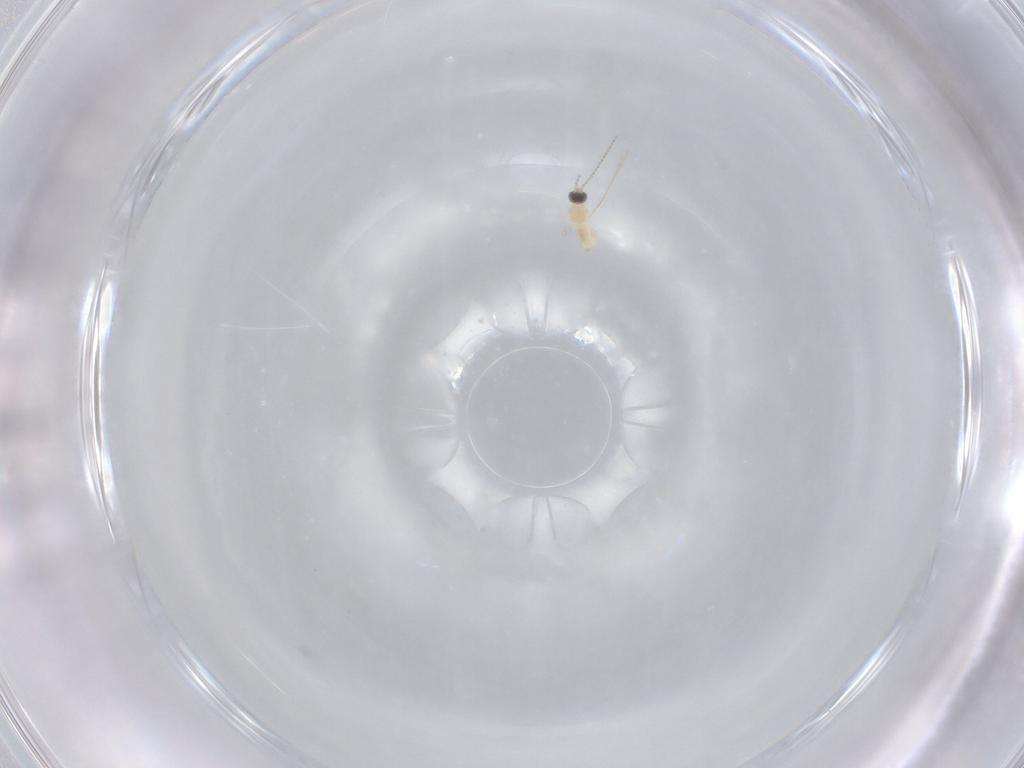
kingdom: Animalia
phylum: Arthropoda
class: Insecta
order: Diptera
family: Cecidomyiidae
